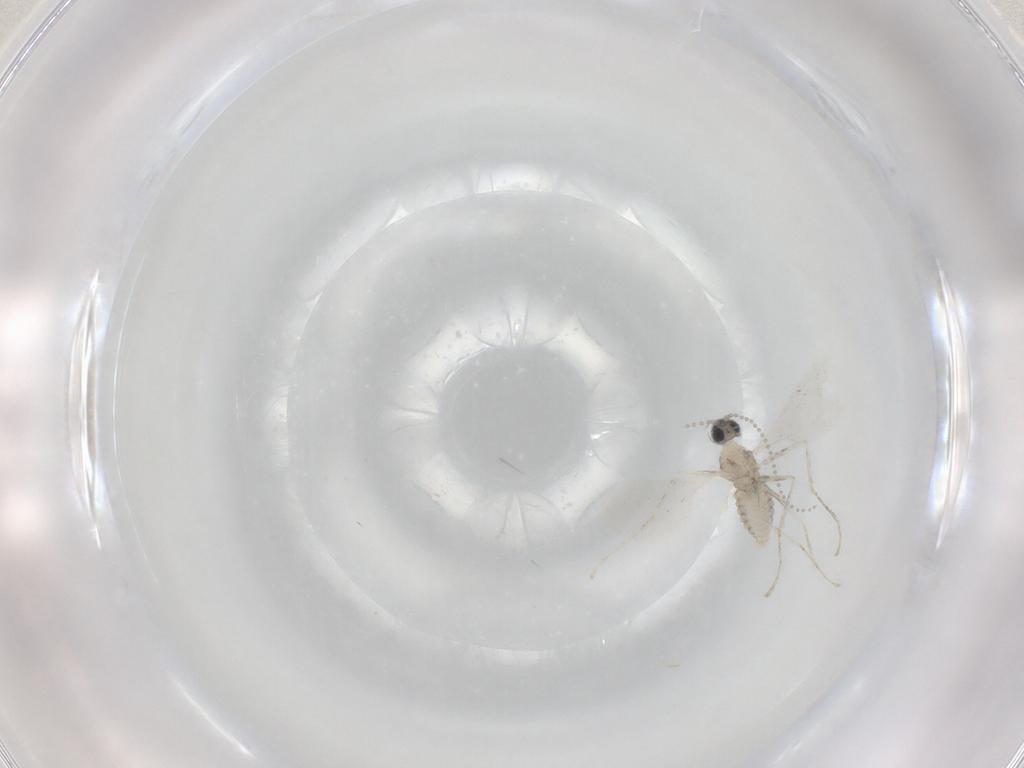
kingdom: Animalia
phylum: Arthropoda
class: Insecta
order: Diptera
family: Cecidomyiidae
